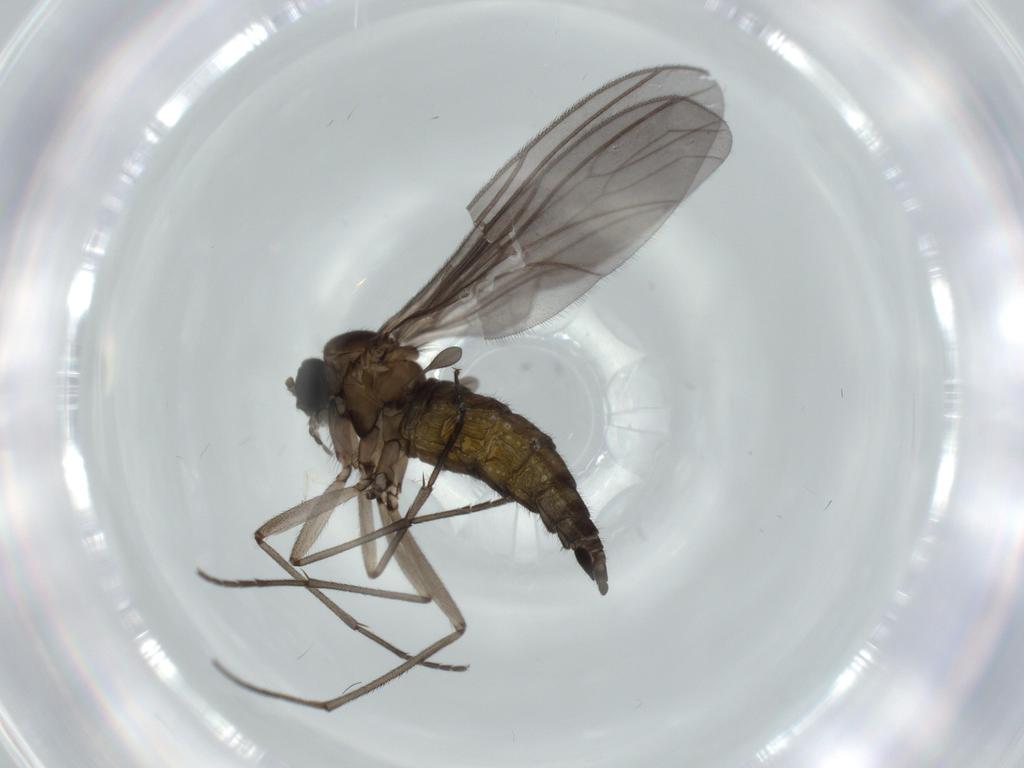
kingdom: Animalia
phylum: Arthropoda
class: Insecta
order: Diptera
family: Sciaridae
